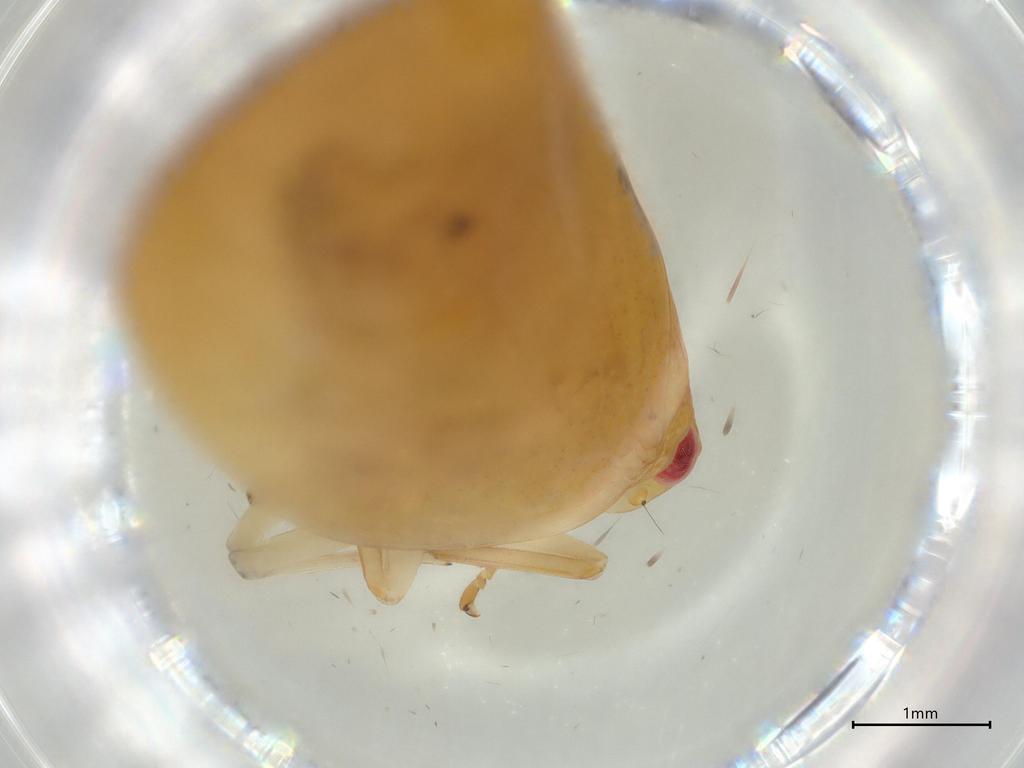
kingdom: Animalia
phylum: Arthropoda
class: Insecta
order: Hemiptera
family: Acanaloniidae
